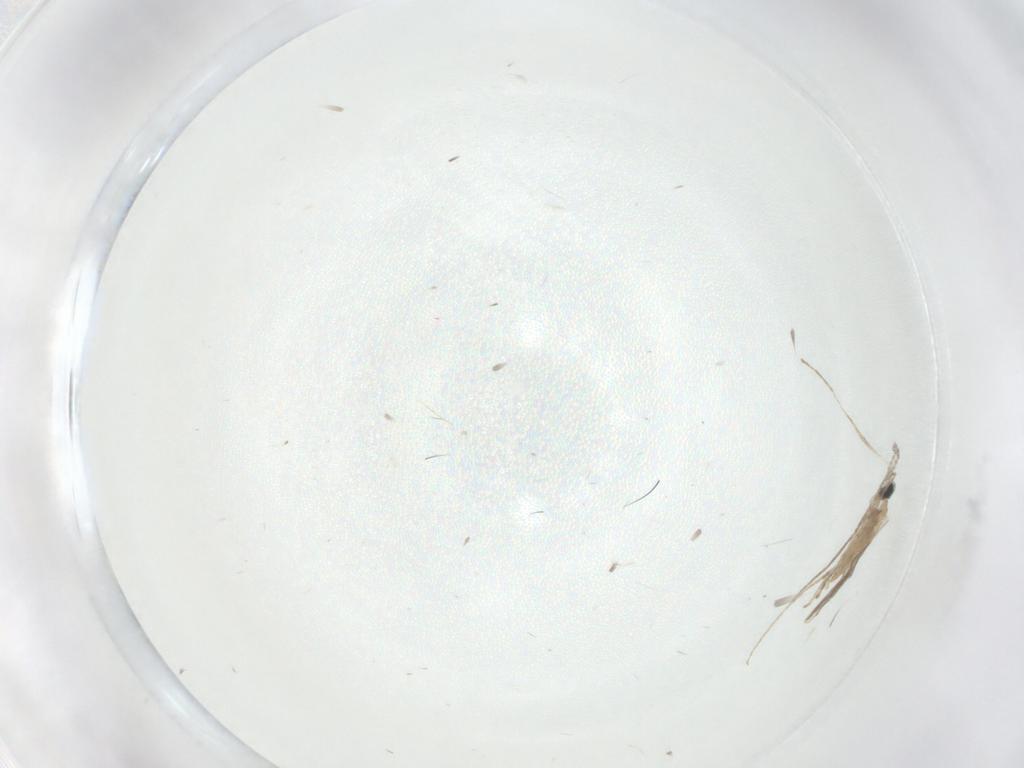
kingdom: Animalia
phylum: Arthropoda
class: Insecta
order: Diptera
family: Cecidomyiidae
